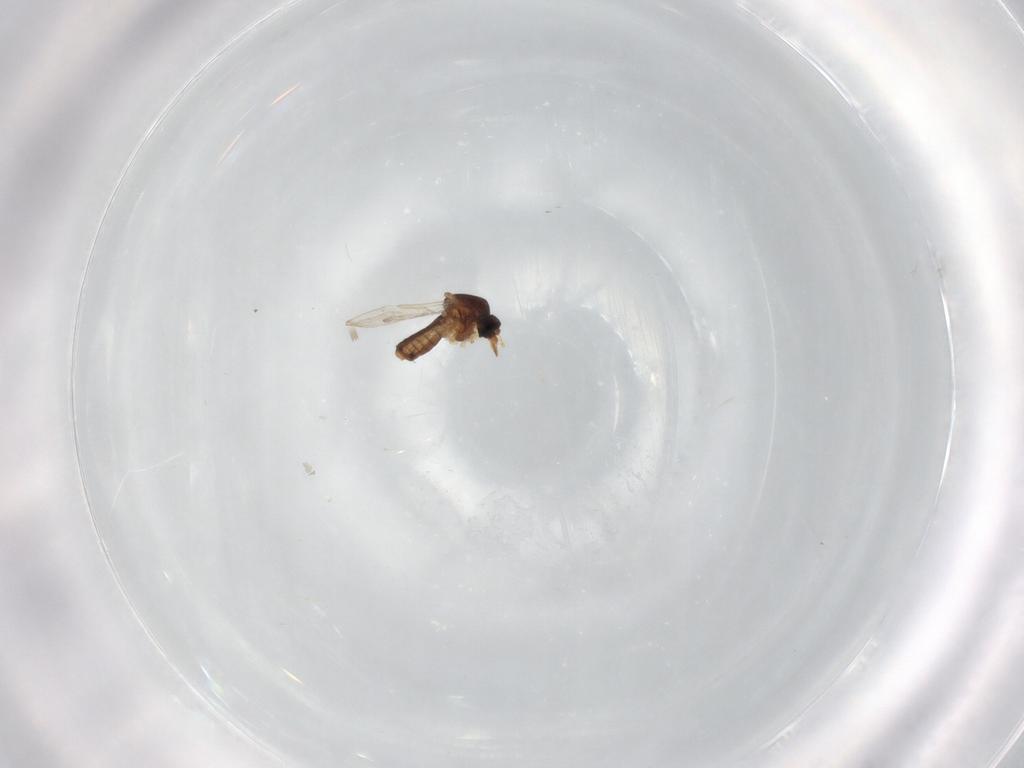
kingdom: Animalia
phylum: Arthropoda
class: Insecta
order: Diptera
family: Ceratopogonidae
